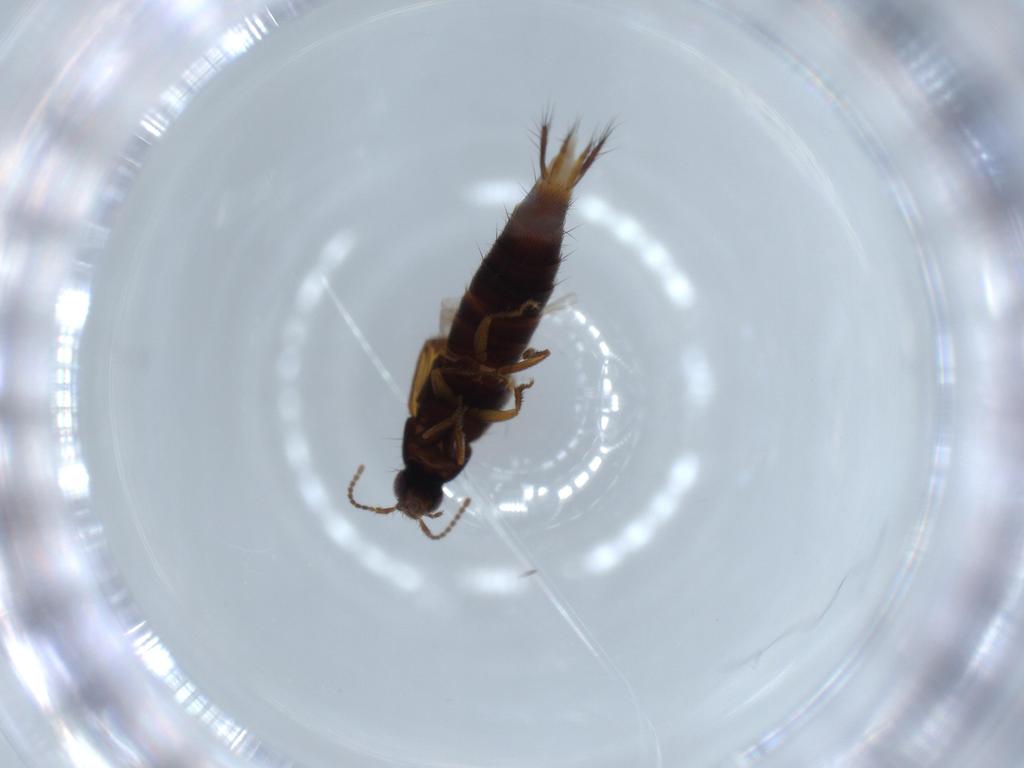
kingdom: Animalia
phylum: Arthropoda
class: Insecta
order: Coleoptera
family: Staphylinidae
